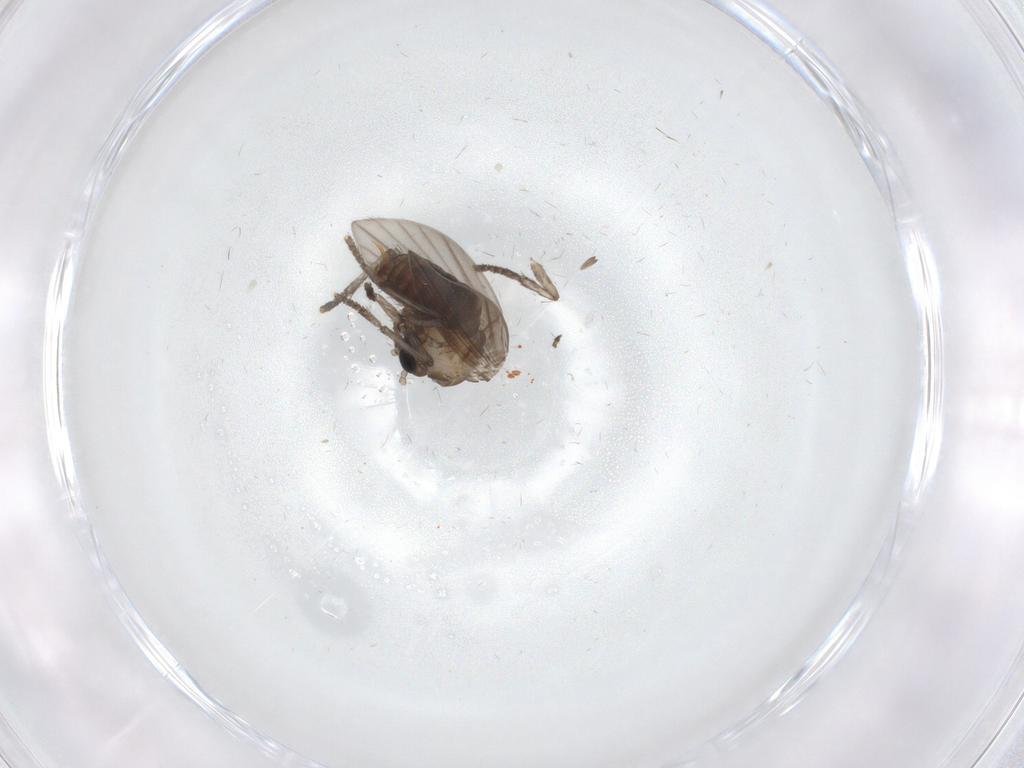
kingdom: Animalia
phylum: Arthropoda
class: Insecta
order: Diptera
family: Psychodidae
